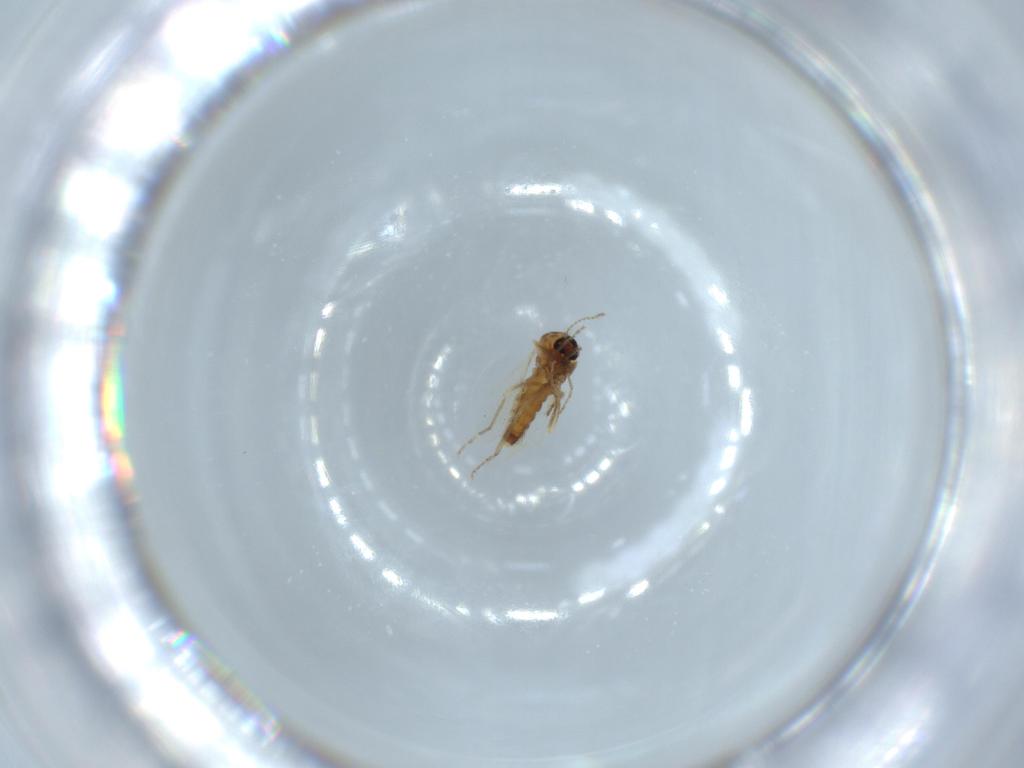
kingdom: Animalia
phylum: Arthropoda
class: Insecta
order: Diptera
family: Ceratopogonidae
